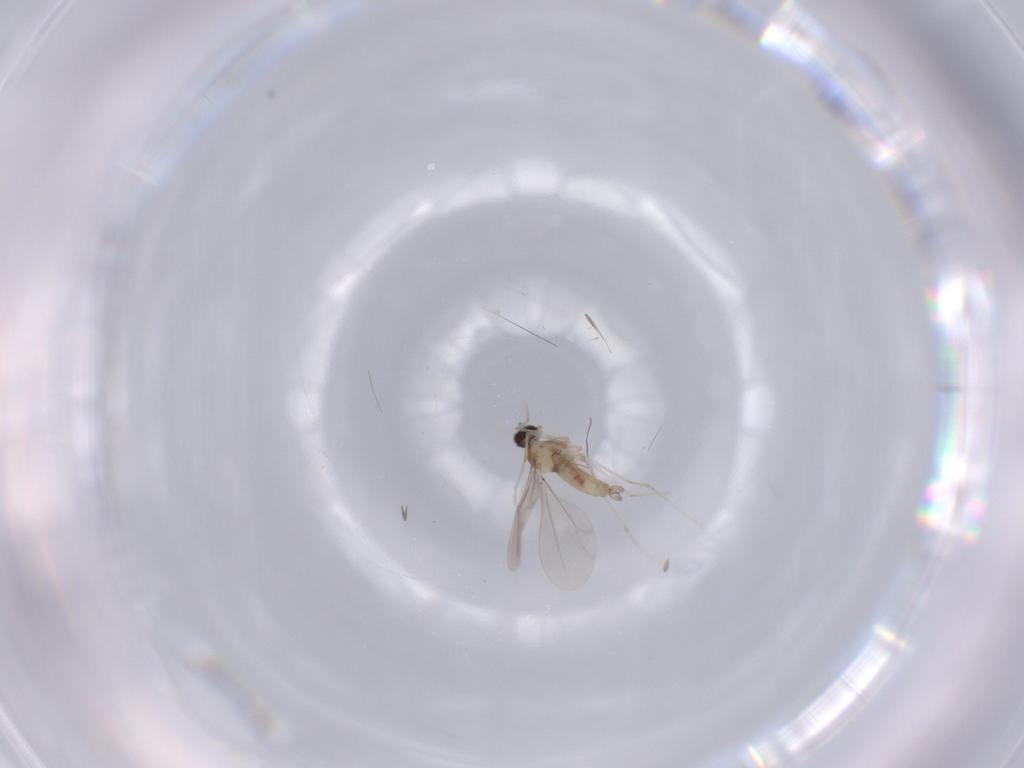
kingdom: Animalia
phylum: Arthropoda
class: Insecta
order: Diptera
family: Cecidomyiidae
